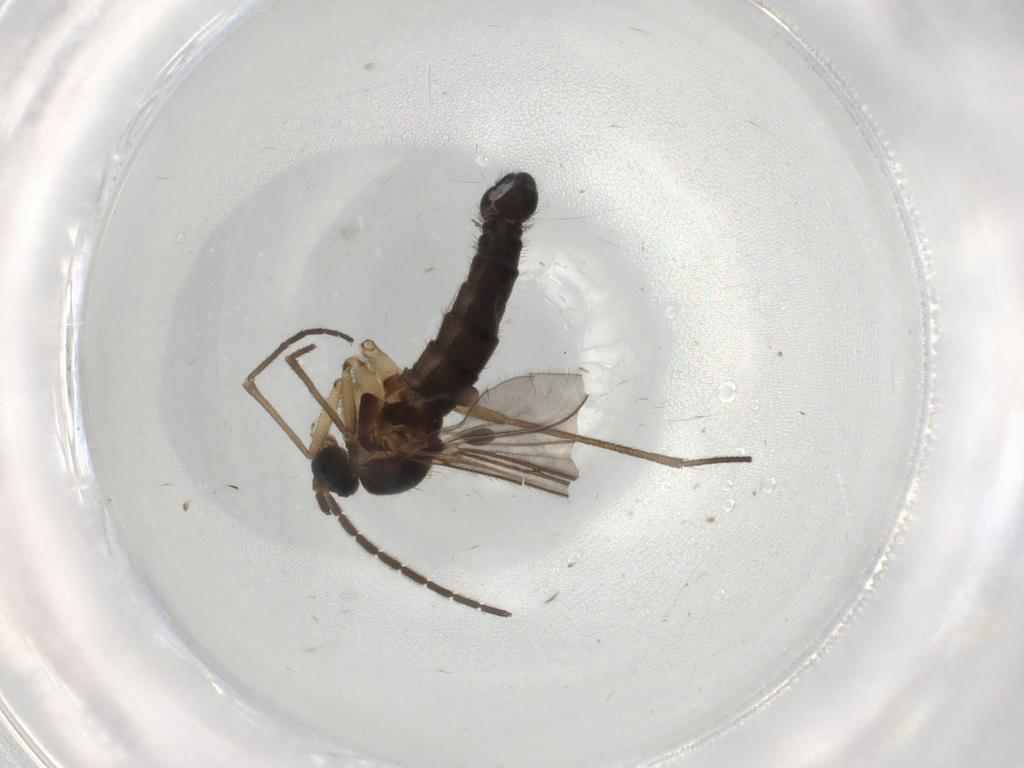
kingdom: Animalia
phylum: Arthropoda
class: Insecta
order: Diptera
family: Sciaridae
